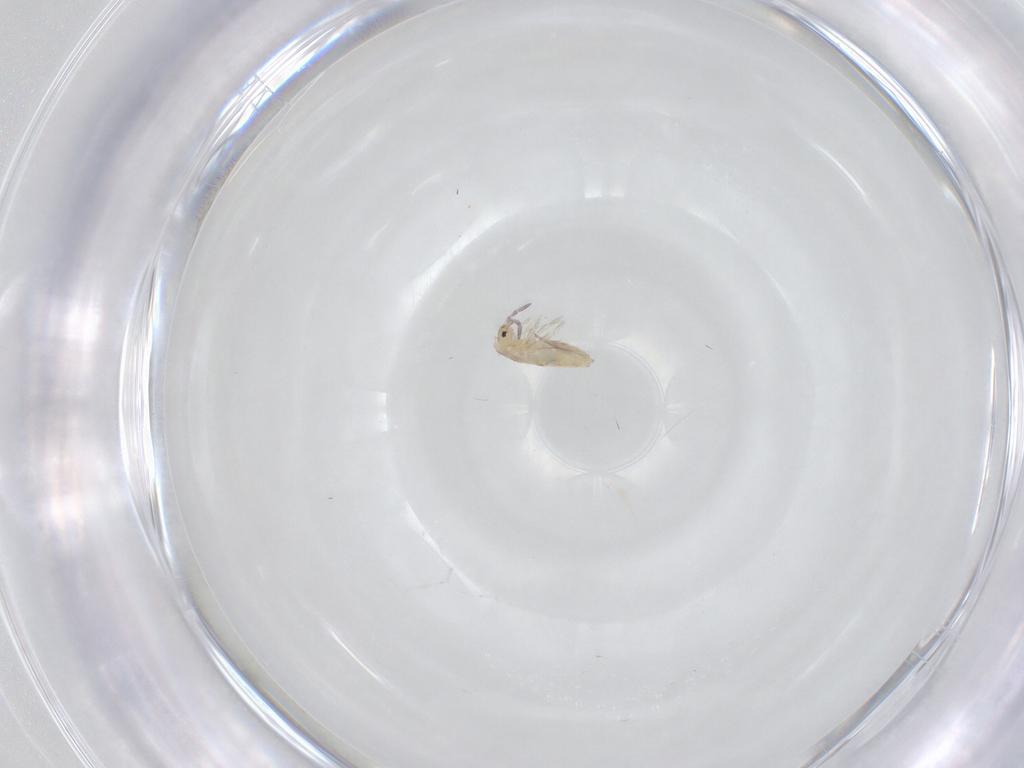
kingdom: Animalia
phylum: Arthropoda
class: Collembola
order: Entomobryomorpha
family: Entomobryidae
